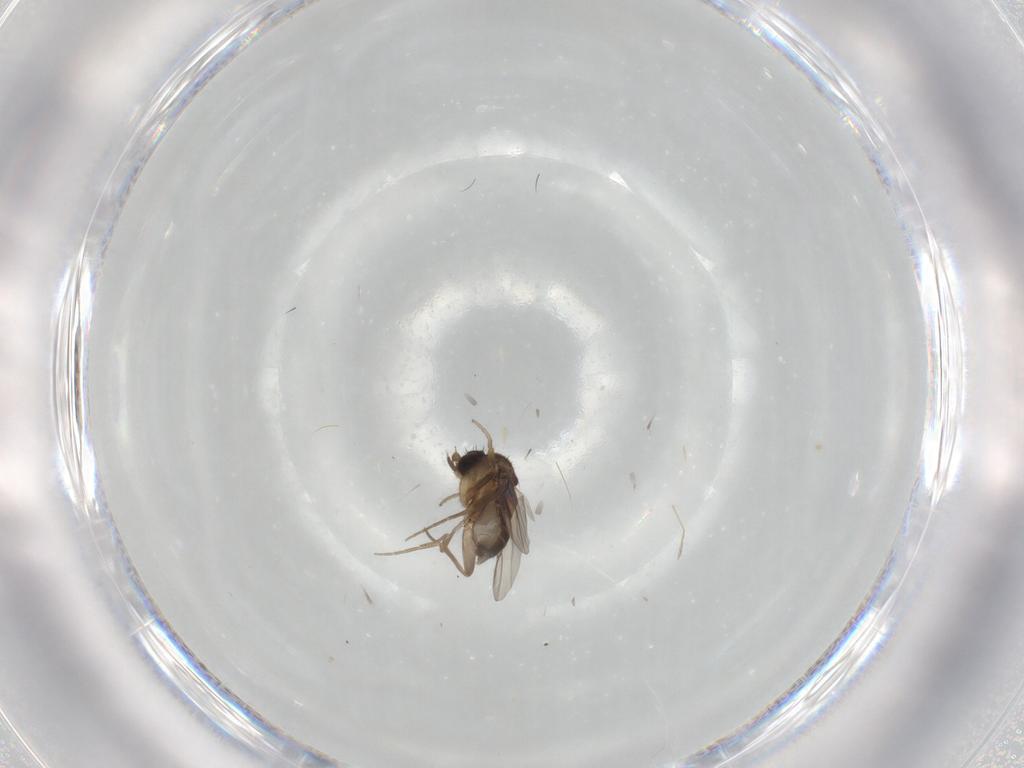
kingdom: Animalia
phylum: Arthropoda
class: Insecta
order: Diptera
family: Phoridae
